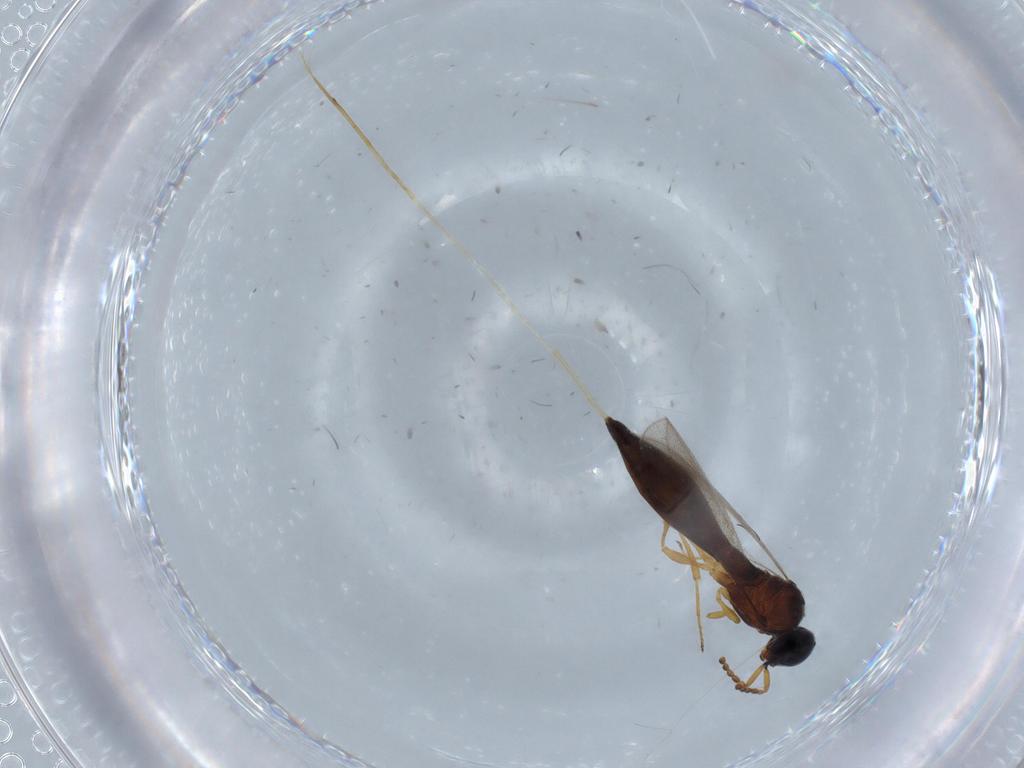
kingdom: Animalia
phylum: Arthropoda
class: Insecta
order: Hymenoptera
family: Scelionidae
